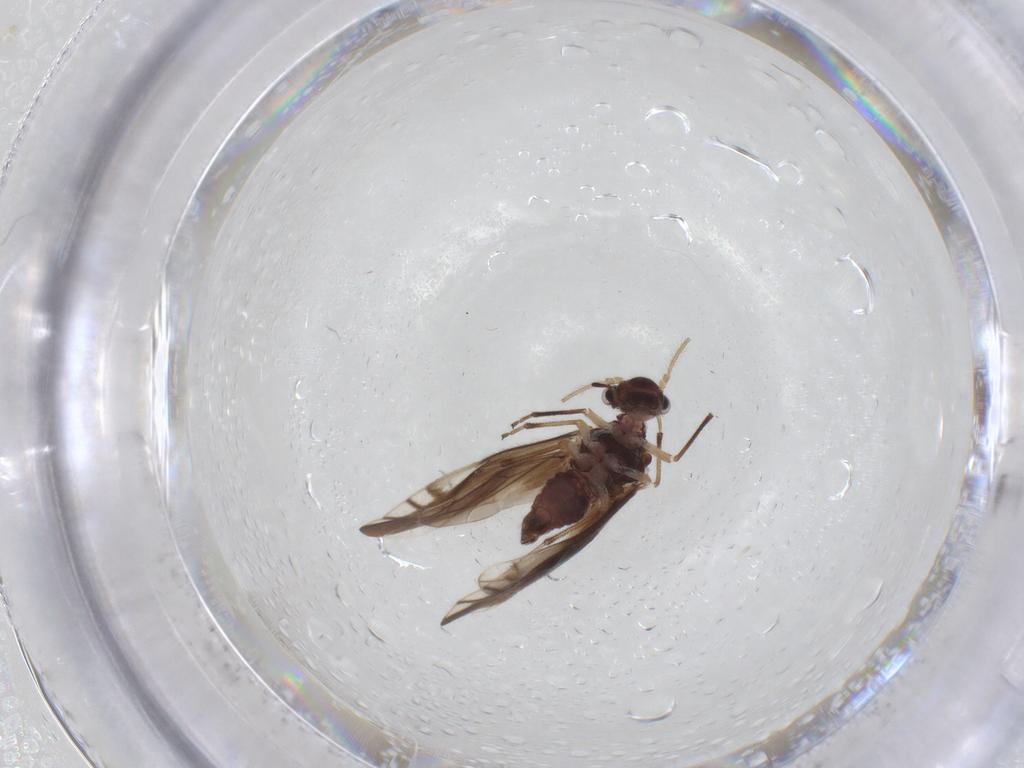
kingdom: Animalia
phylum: Arthropoda
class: Insecta
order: Psocodea
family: Caeciliusidae
